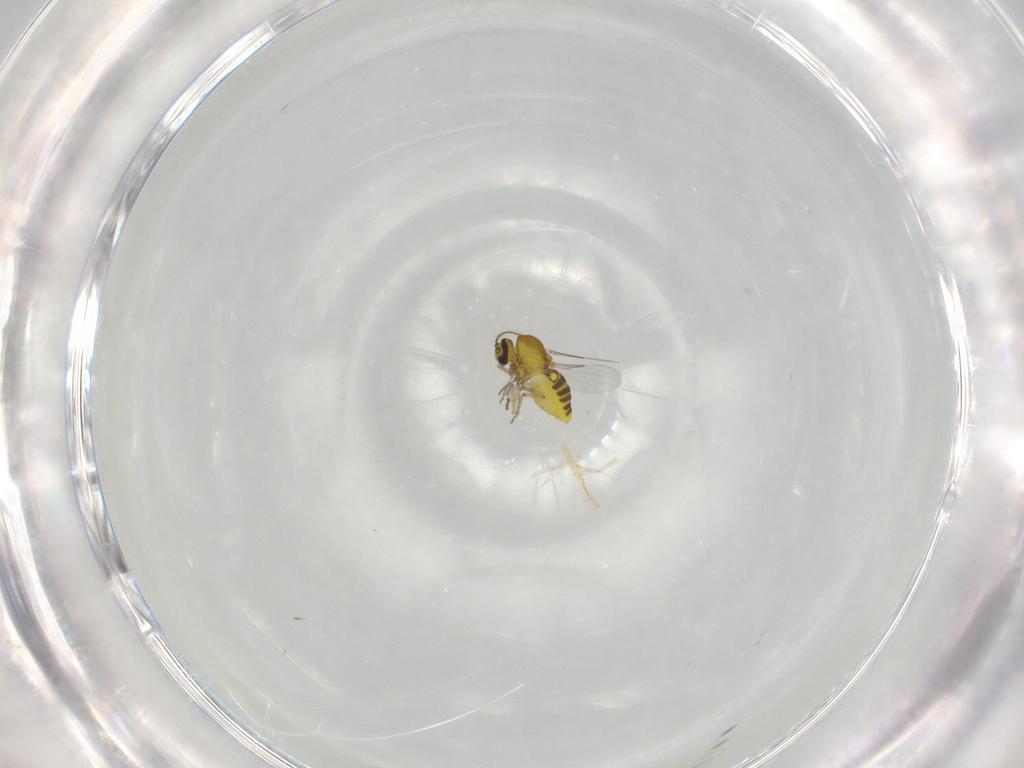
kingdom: Animalia
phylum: Arthropoda
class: Insecta
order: Diptera
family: Ceratopogonidae
